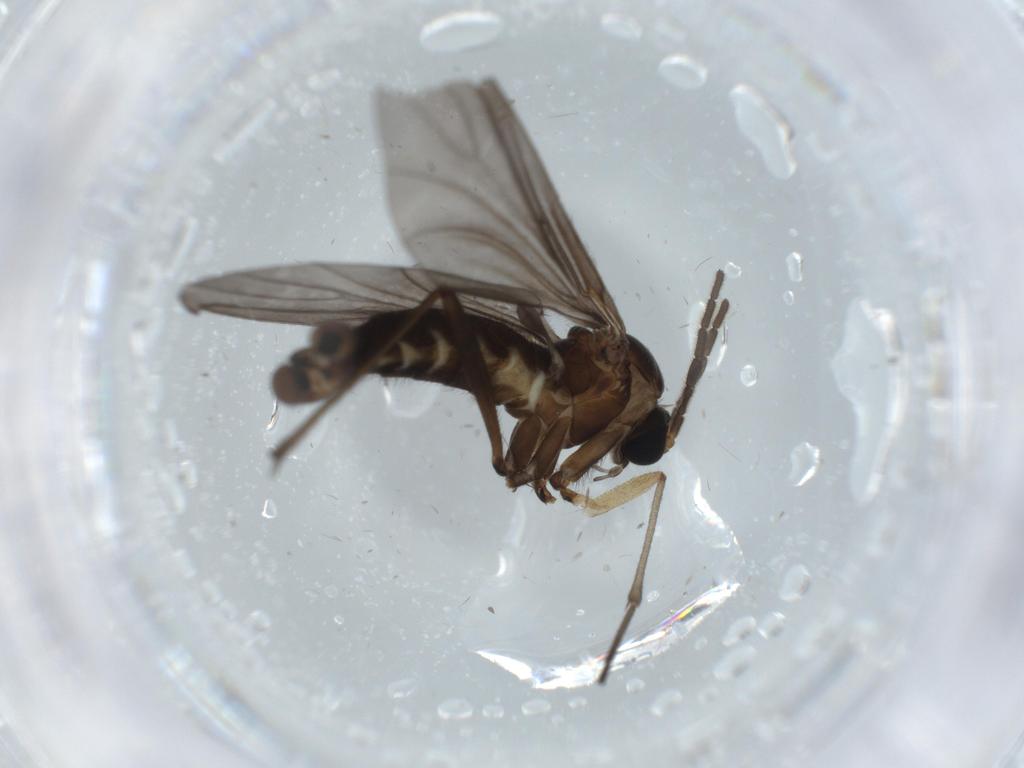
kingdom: Animalia
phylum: Arthropoda
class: Insecta
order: Diptera
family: Sciaridae
